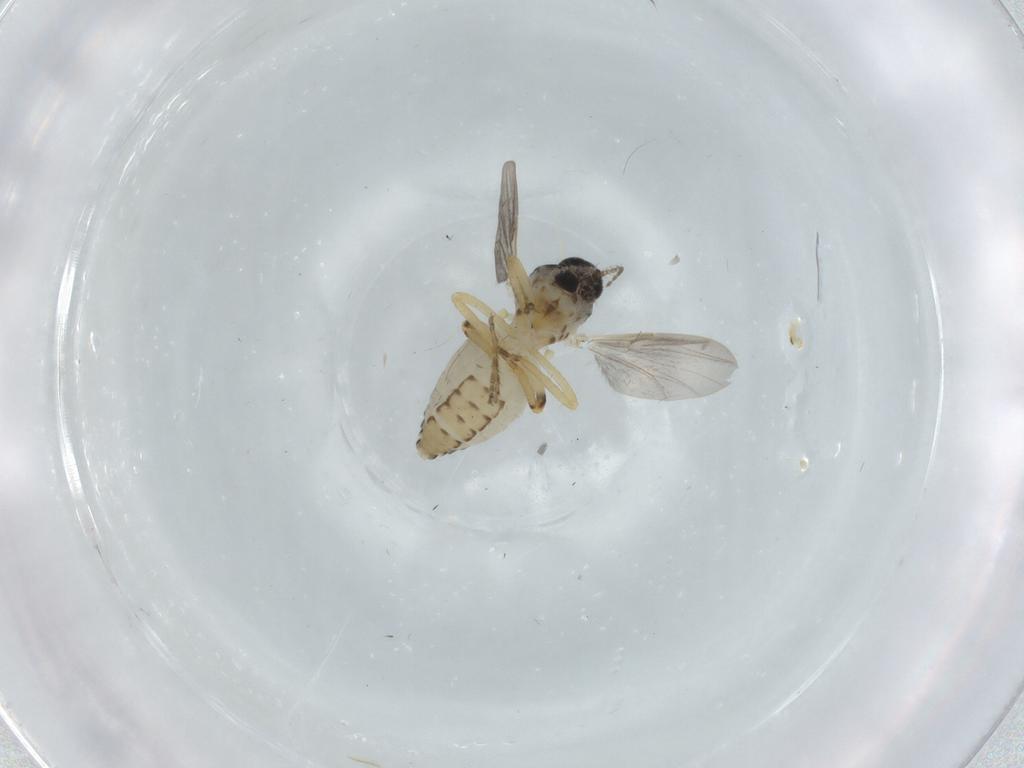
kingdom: Animalia
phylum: Arthropoda
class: Insecta
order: Diptera
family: Ceratopogonidae
